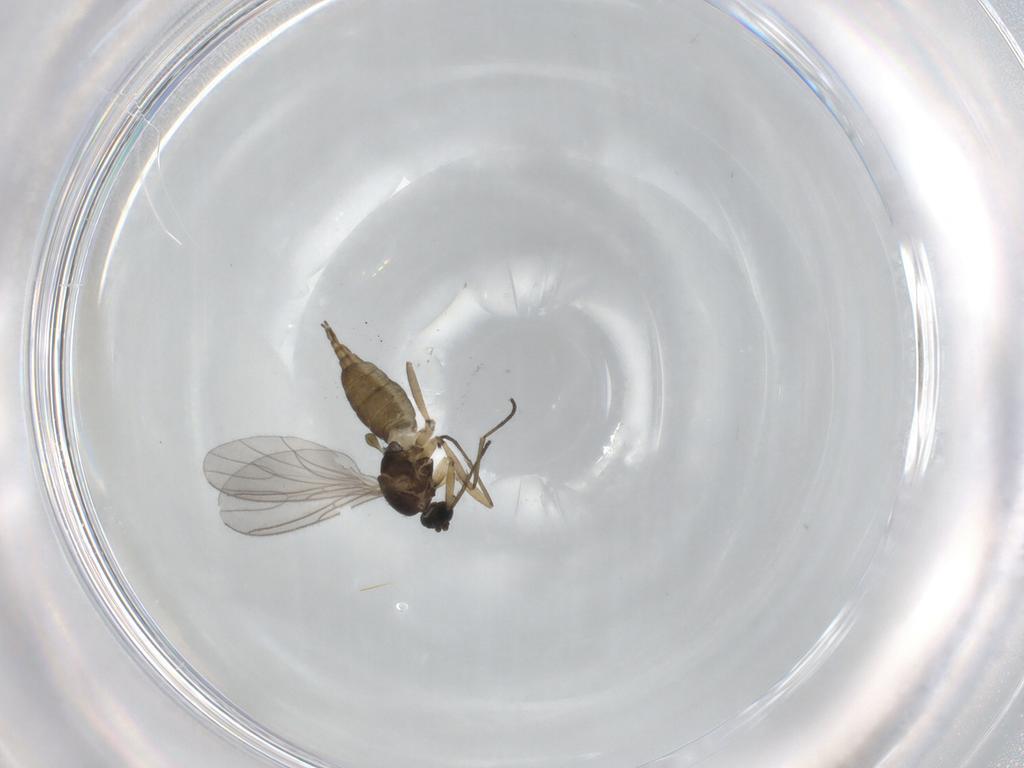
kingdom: Animalia
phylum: Arthropoda
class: Insecta
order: Diptera
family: Sciaridae
